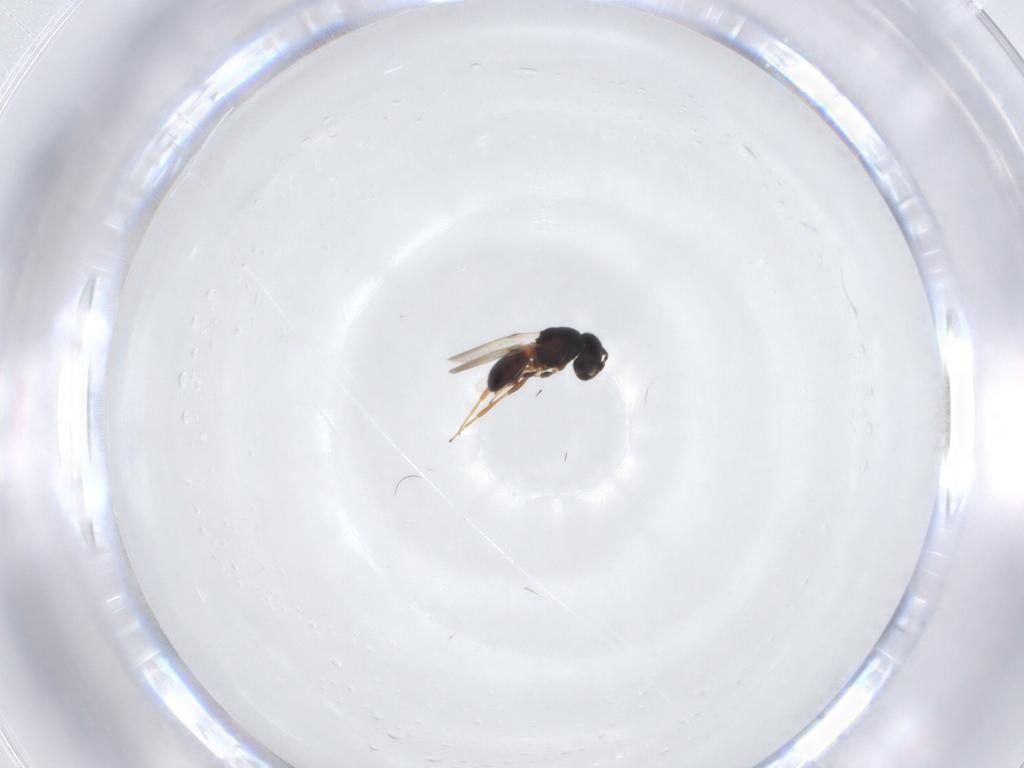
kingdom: Animalia
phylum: Arthropoda
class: Arachnida
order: Araneae
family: Pholcidae
